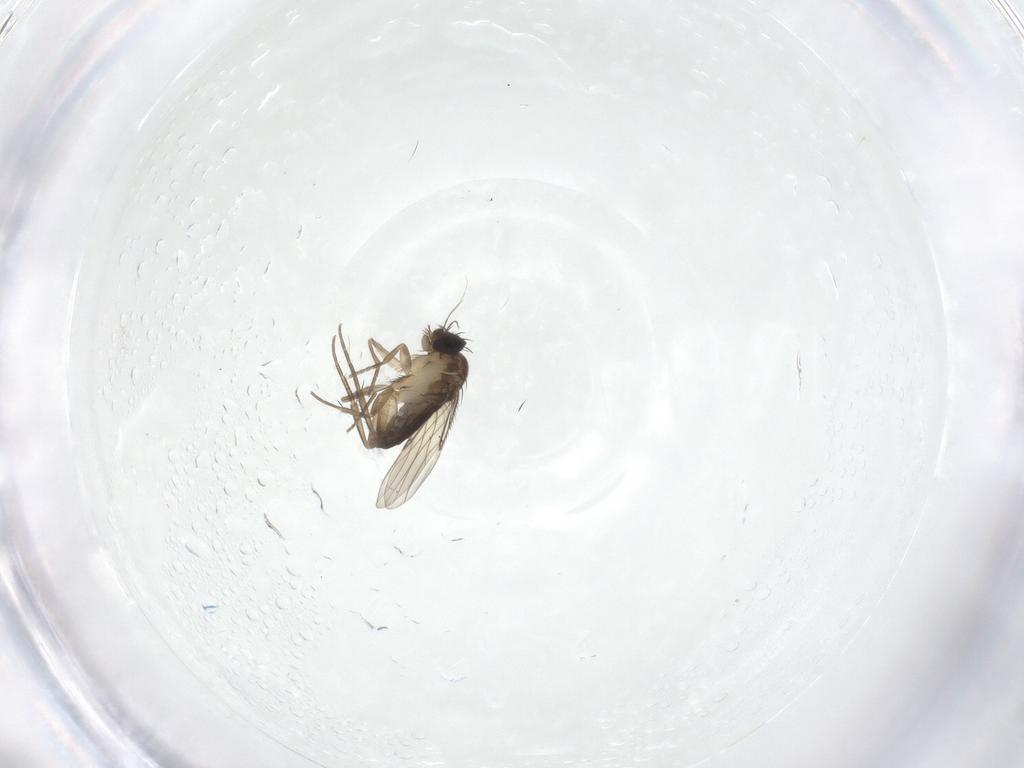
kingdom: Animalia
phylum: Arthropoda
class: Insecta
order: Diptera
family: Phoridae
